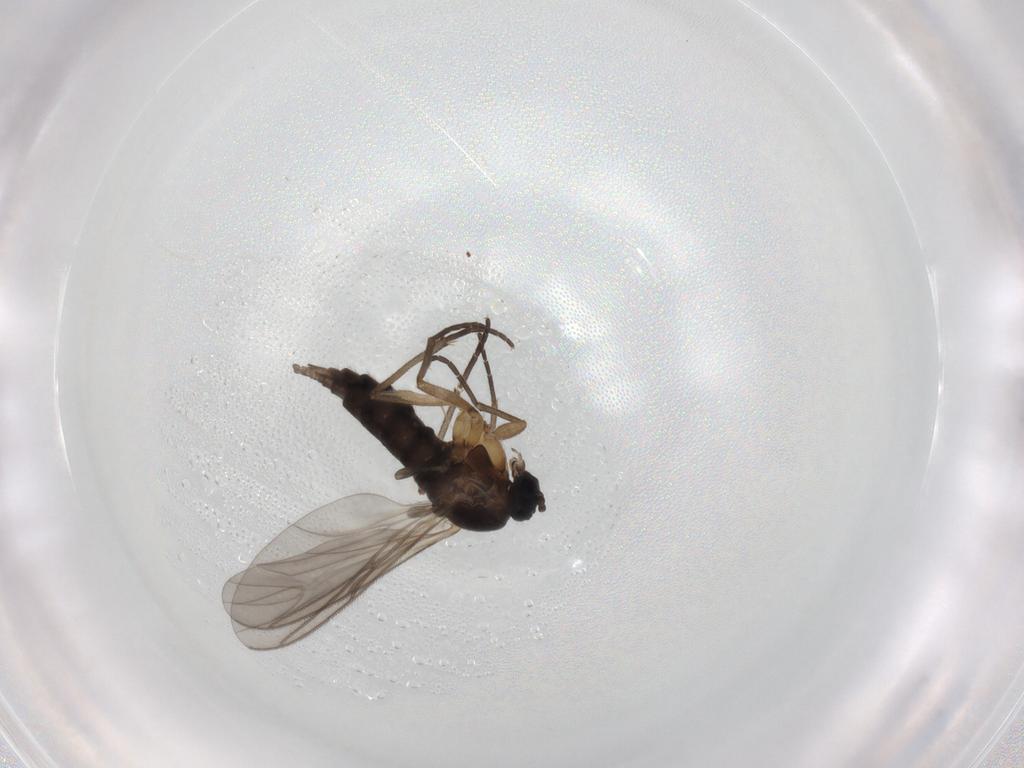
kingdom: Animalia
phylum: Arthropoda
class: Insecta
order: Diptera
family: Sciaridae
